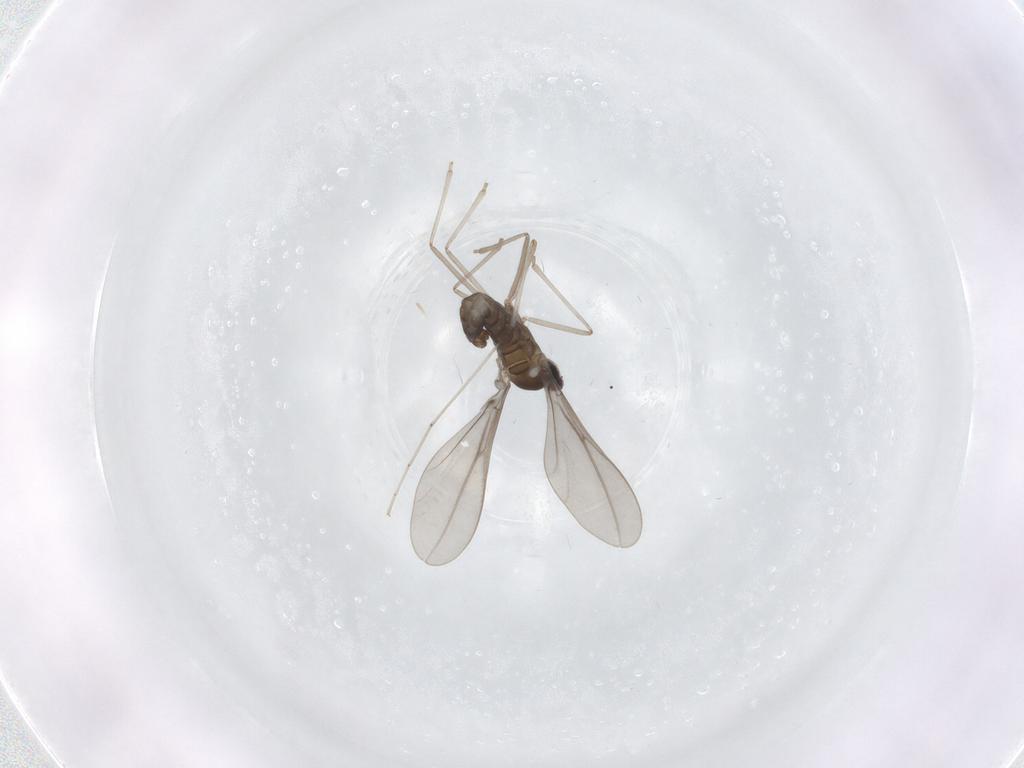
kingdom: Animalia
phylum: Arthropoda
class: Insecta
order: Diptera
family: Cecidomyiidae
